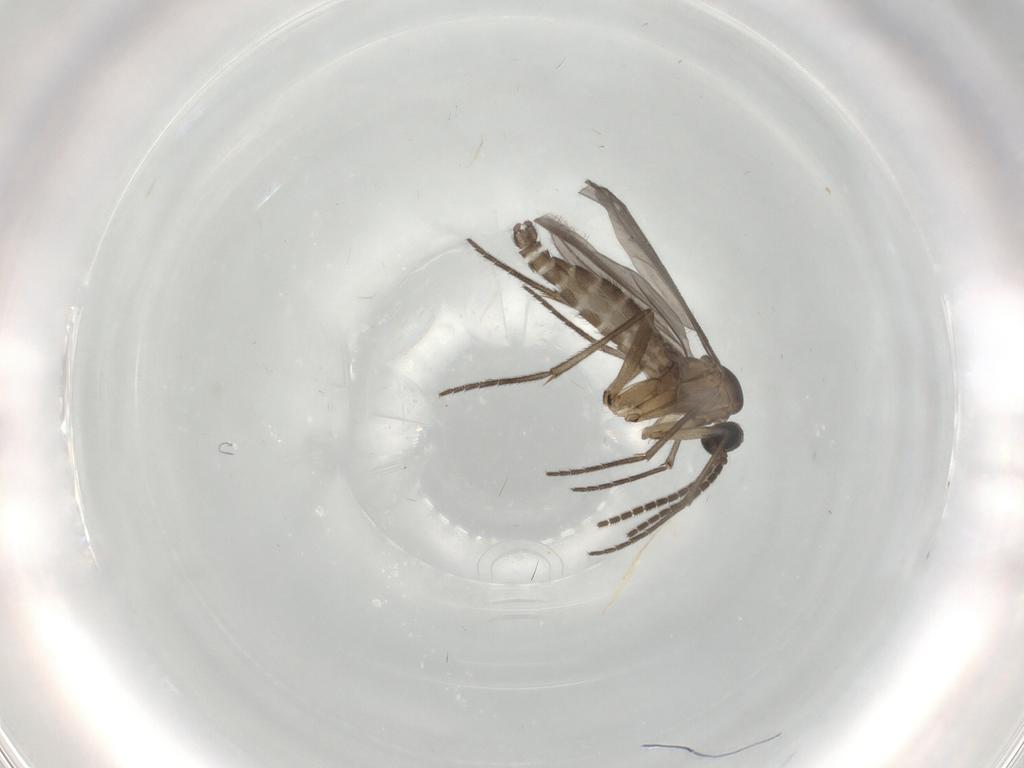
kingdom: Animalia
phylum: Arthropoda
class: Insecta
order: Diptera
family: Sciaridae
